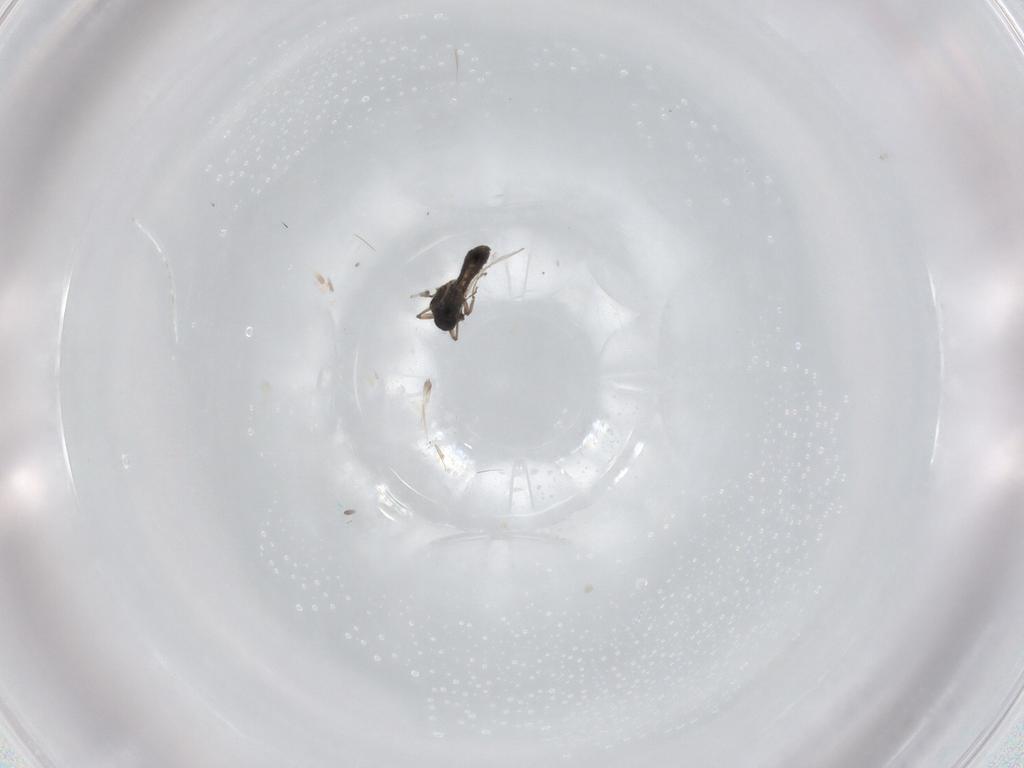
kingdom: Animalia
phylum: Arthropoda
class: Insecta
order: Diptera
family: Ceratopogonidae
